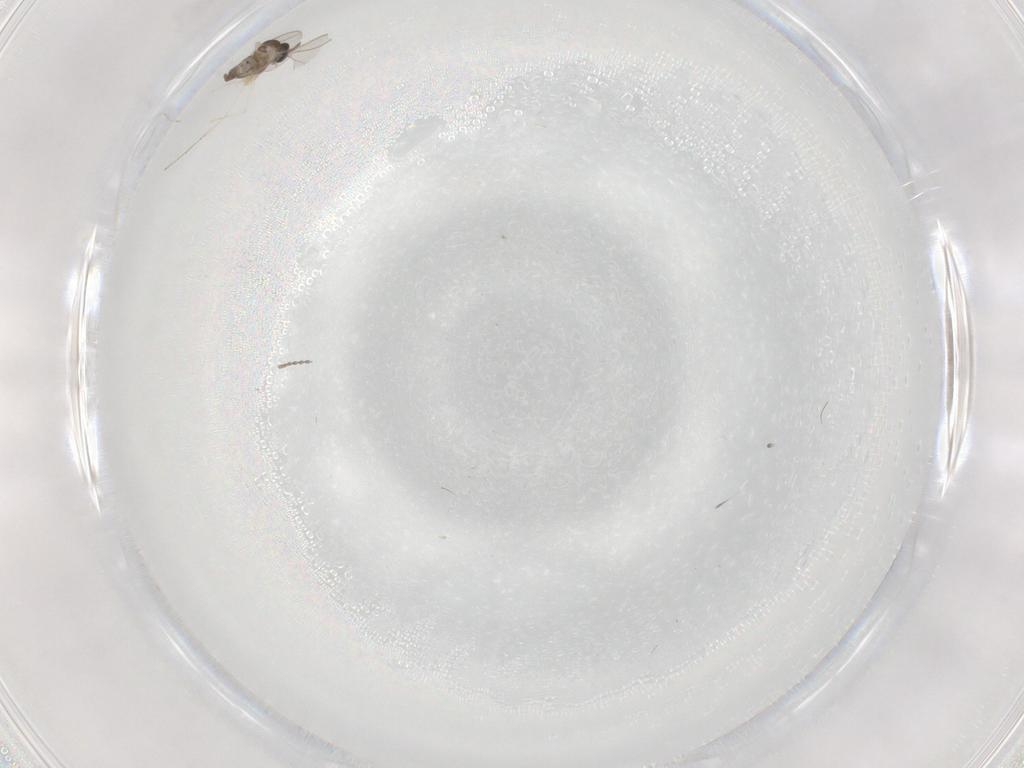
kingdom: Animalia
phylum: Arthropoda
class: Insecta
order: Diptera
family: Cecidomyiidae
